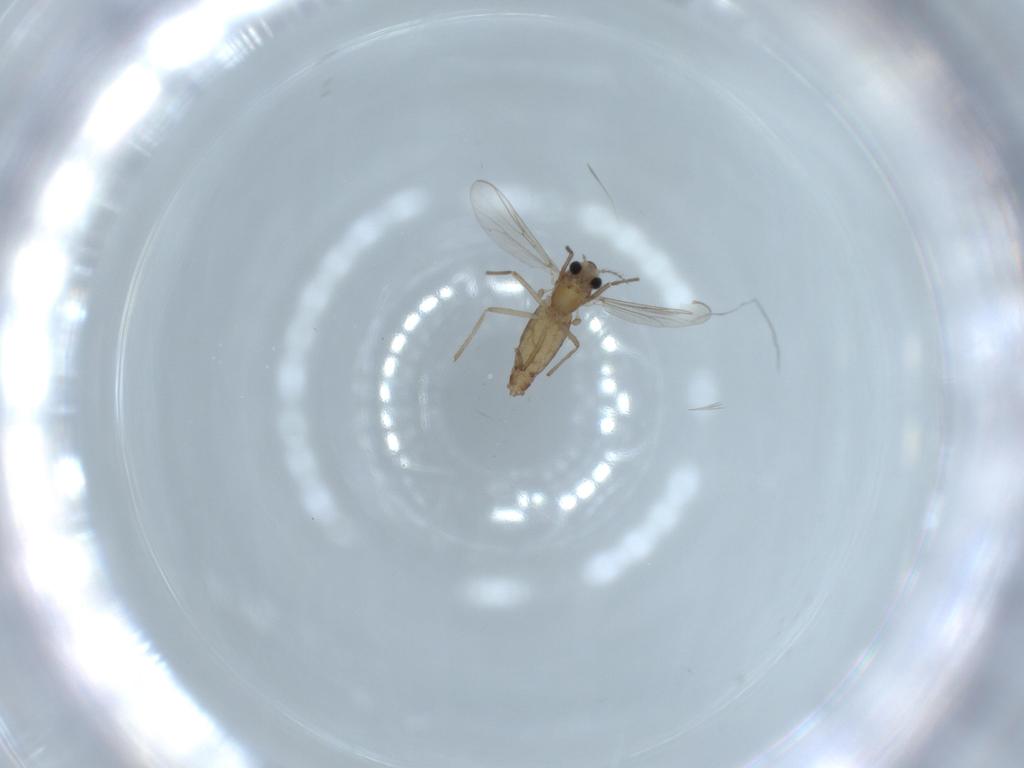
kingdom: Animalia
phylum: Arthropoda
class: Insecta
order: Diptera
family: Chironomidae
